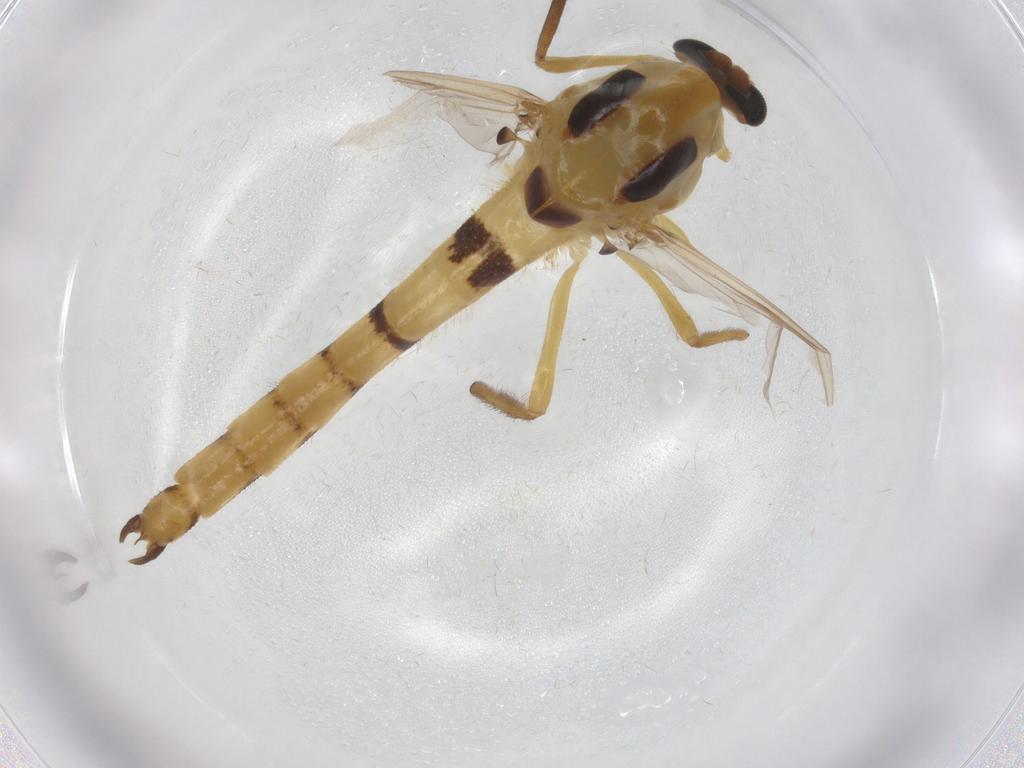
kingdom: Animalia
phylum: Arthropoda
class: Insecta
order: Diptera
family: Chironomidae
